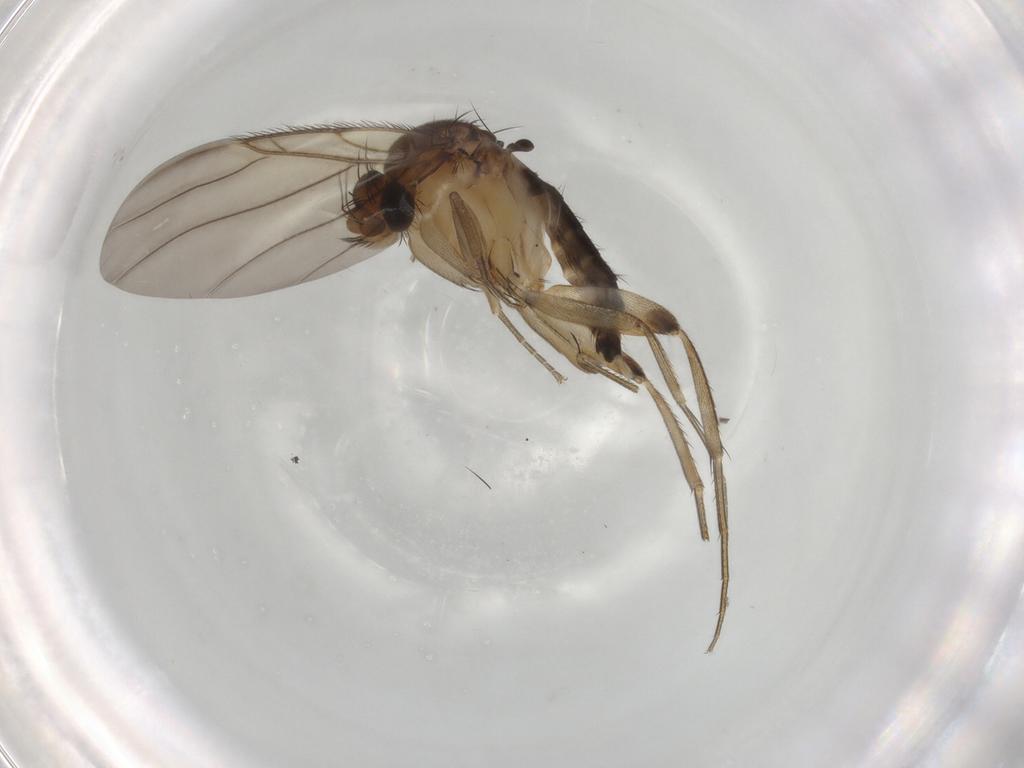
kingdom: Animalia
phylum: Arthropoda
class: Insecta
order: Diptera
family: Phoridae
